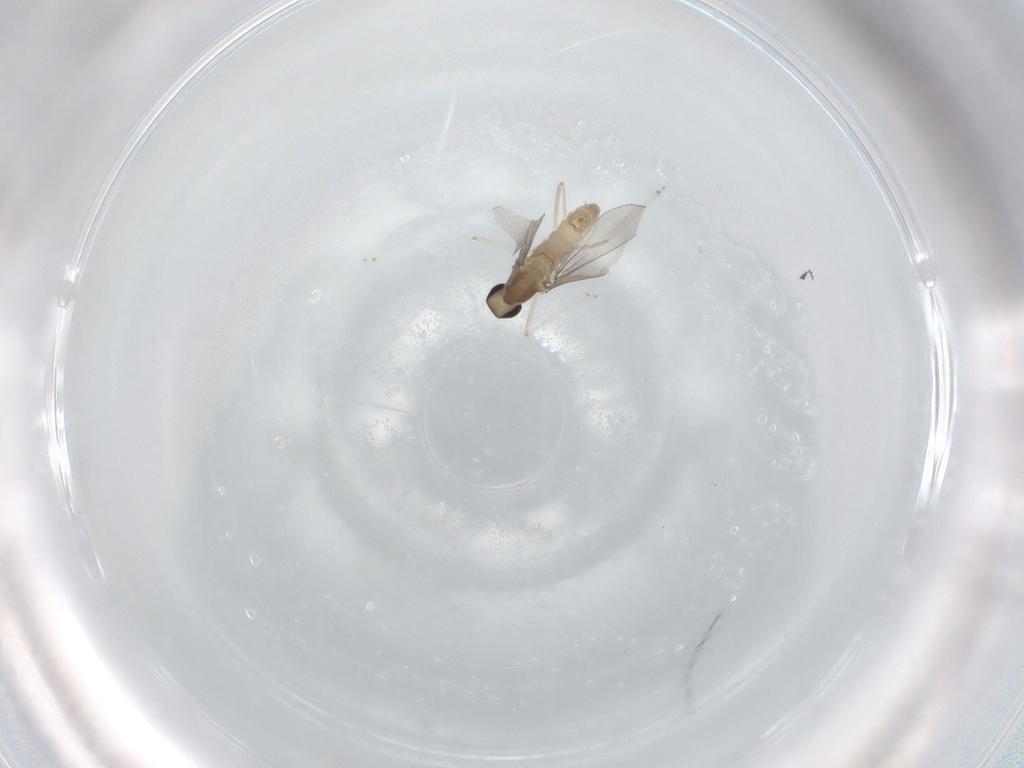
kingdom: Animalia
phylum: Arthropoda
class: Insecta
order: Diptera
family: Cecidomyiidae
